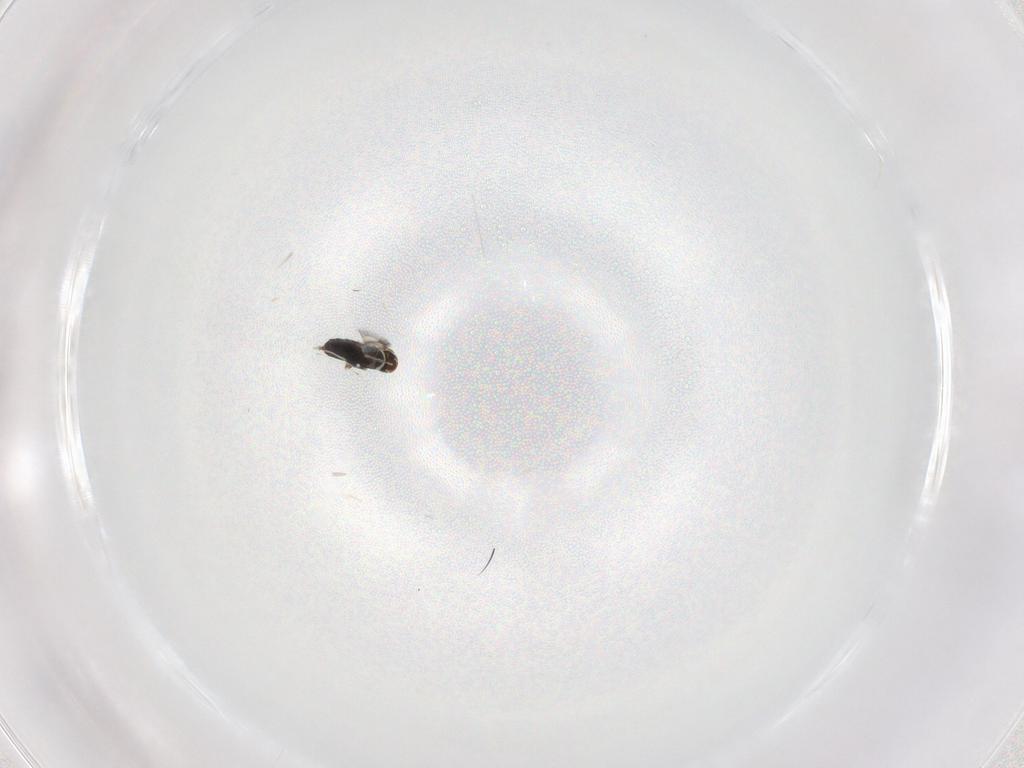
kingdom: Animalia
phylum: Arthropoda
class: Insecta
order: Hymenoptera
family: Signiphoridae
